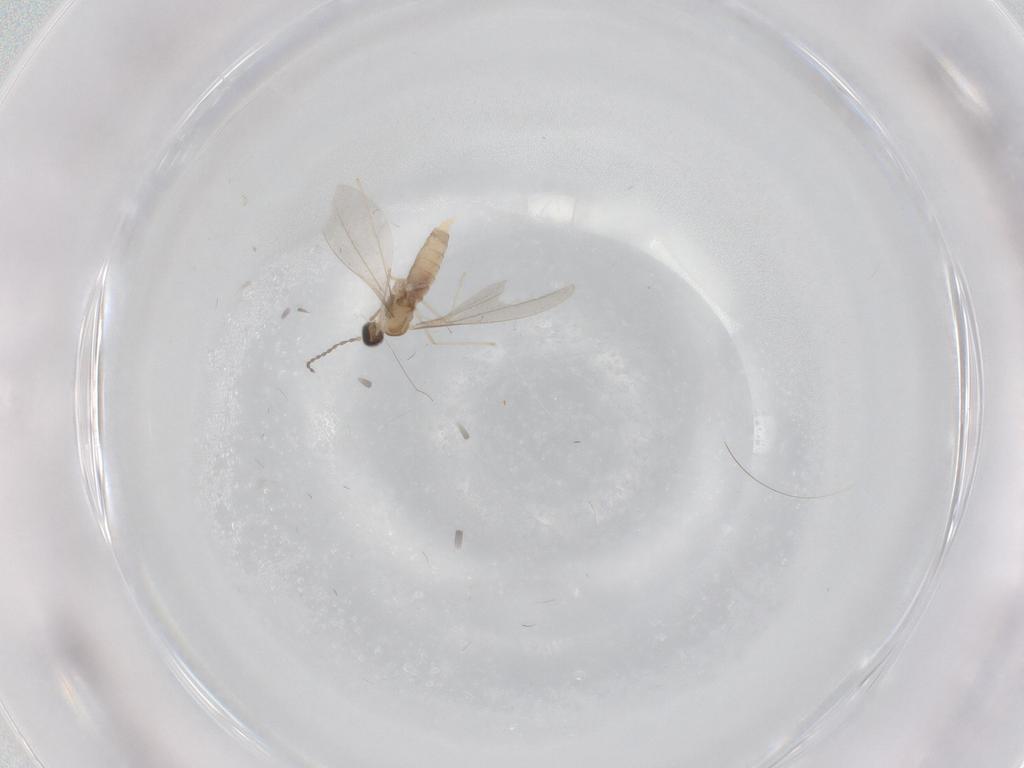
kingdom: Animalia
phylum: Arthropoda
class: Insecta
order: Diptera
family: Cecidomyiidae
